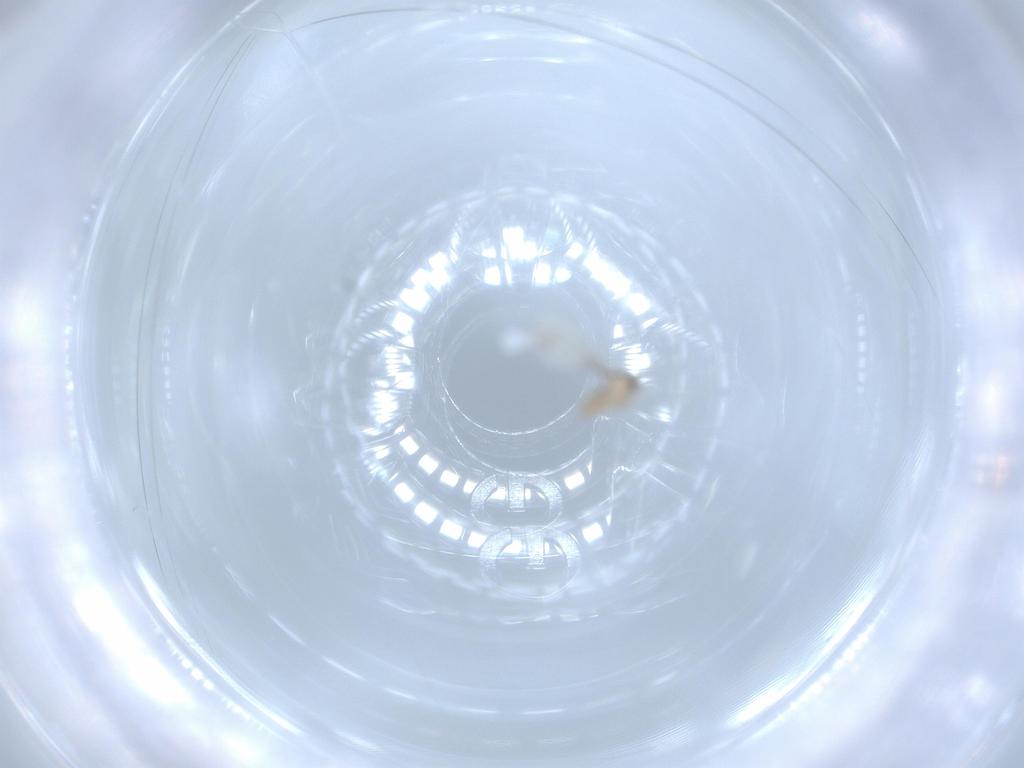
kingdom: Animalia
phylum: Arthropoda
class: Insecta
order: Diptera
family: Cecidomyiidae
